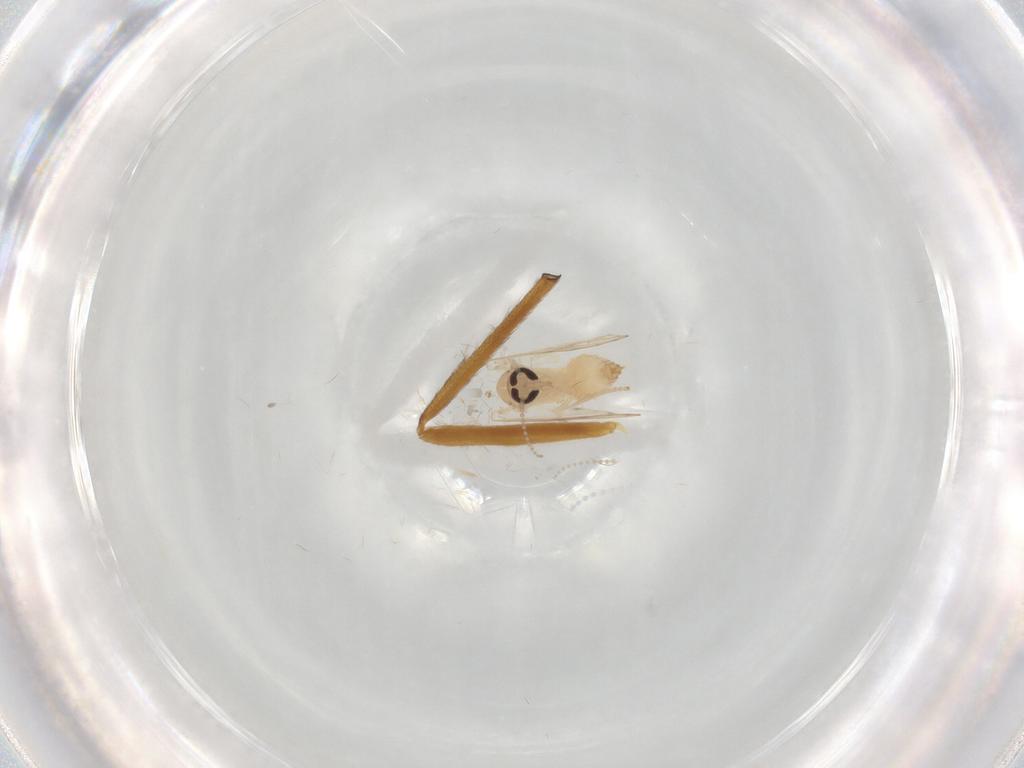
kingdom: Animalia
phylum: Arthropoda
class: Insecta
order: Diptera
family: Psychodidae
